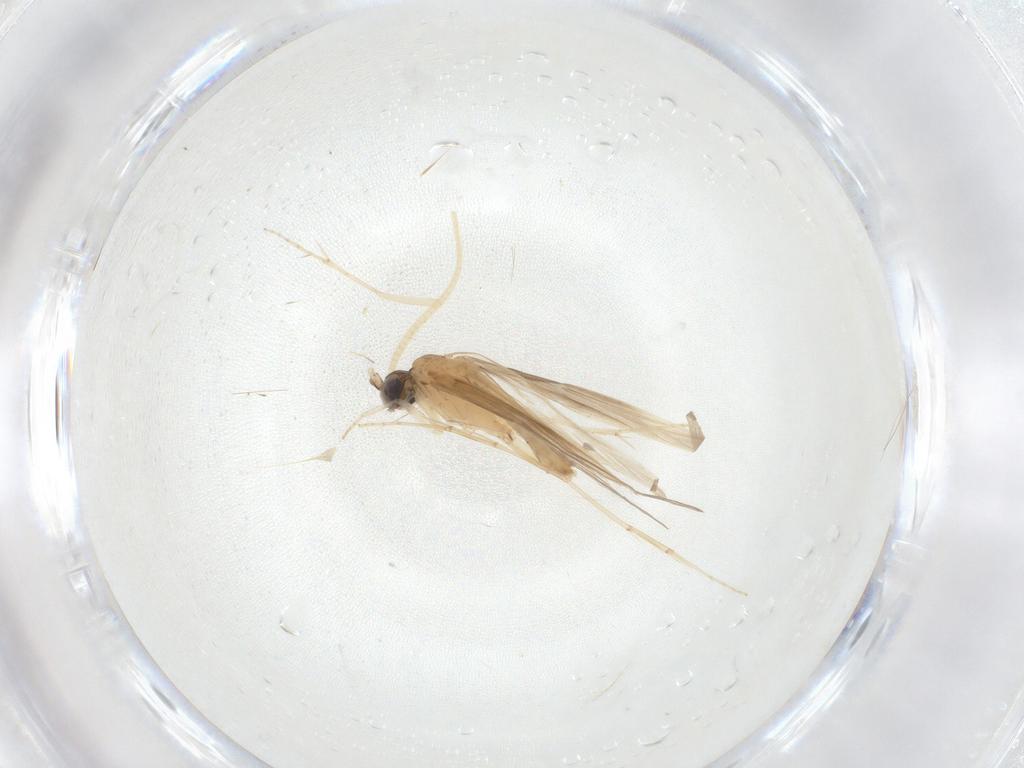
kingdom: Animalia
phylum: Arthropoda
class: Insecta
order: Trichoptera
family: Hydroptilidae
